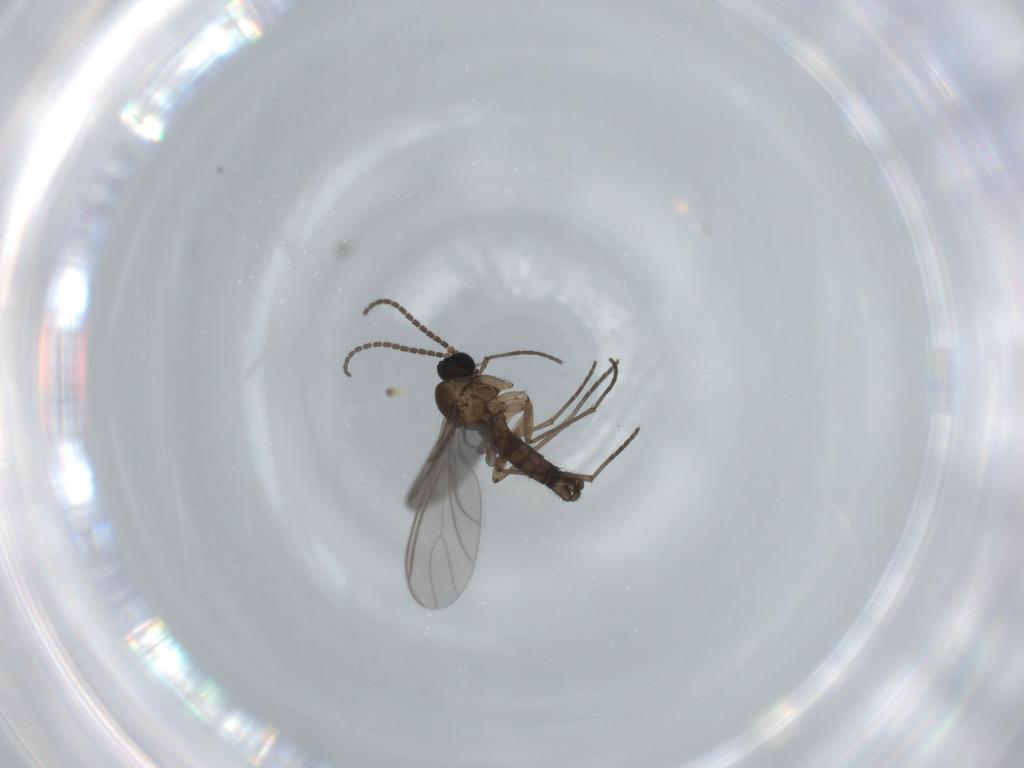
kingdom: Animalia
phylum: Arthropoda
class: Insecta
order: Diptera
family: Sciaridae
